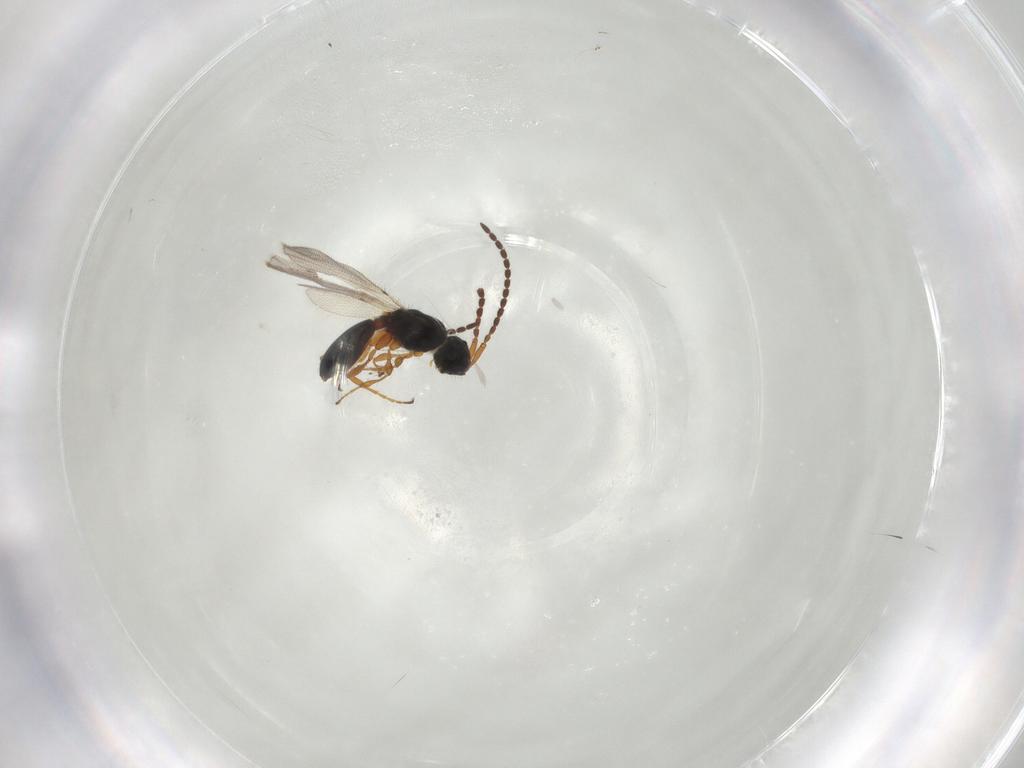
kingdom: Animalia
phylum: Arthropoda
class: Insecta
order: Hymenoptera
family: Diapriidae
